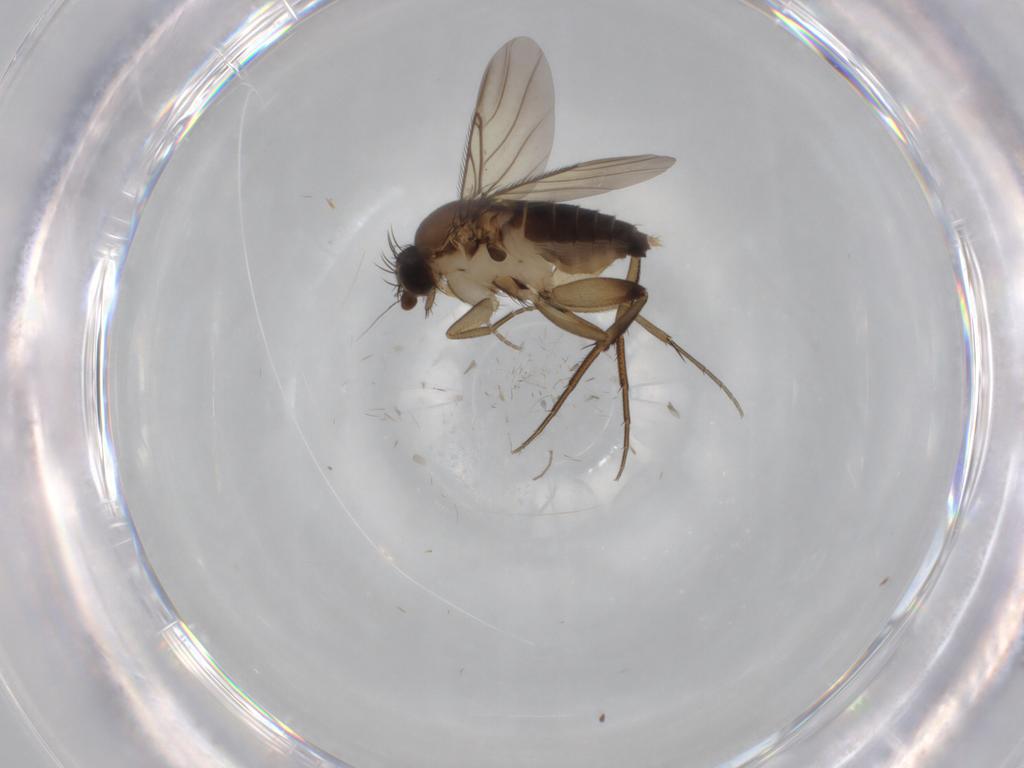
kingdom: Animalia
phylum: Arthropoda
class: Insecta
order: Diptera
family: Phoridae
